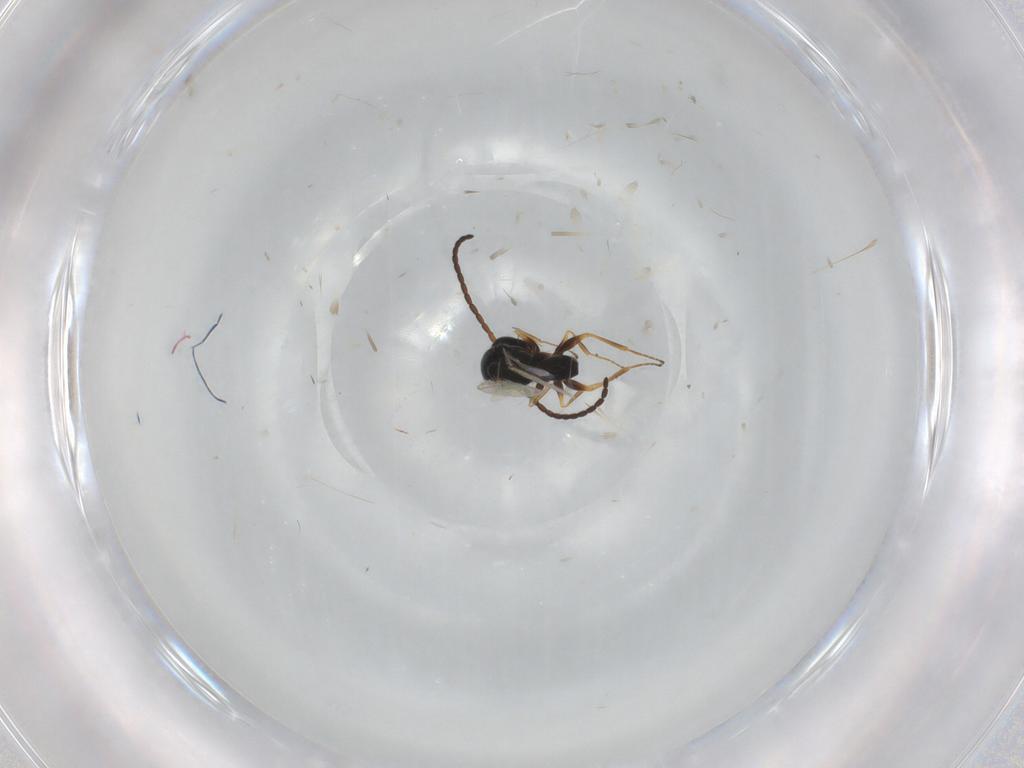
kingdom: Animalia
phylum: Arthropoda
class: Insecta
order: Hymenoptera
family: Figitidae
